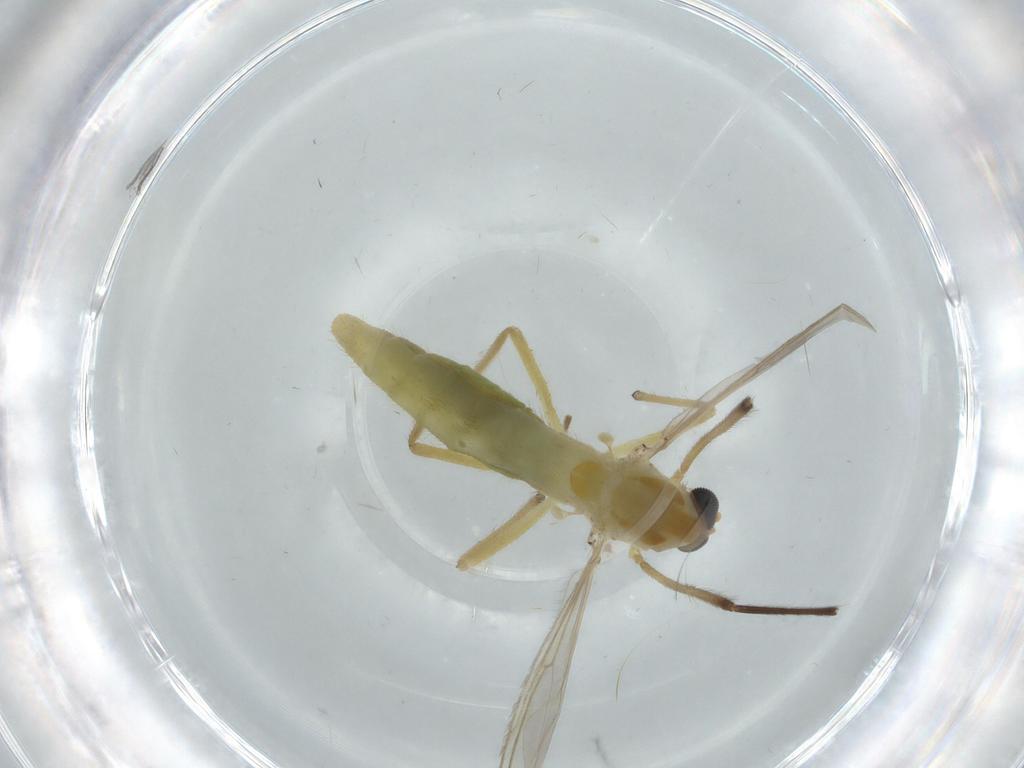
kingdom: Animalia
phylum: Arthropoda
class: Insecta
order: Diptera
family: Chironomidae
